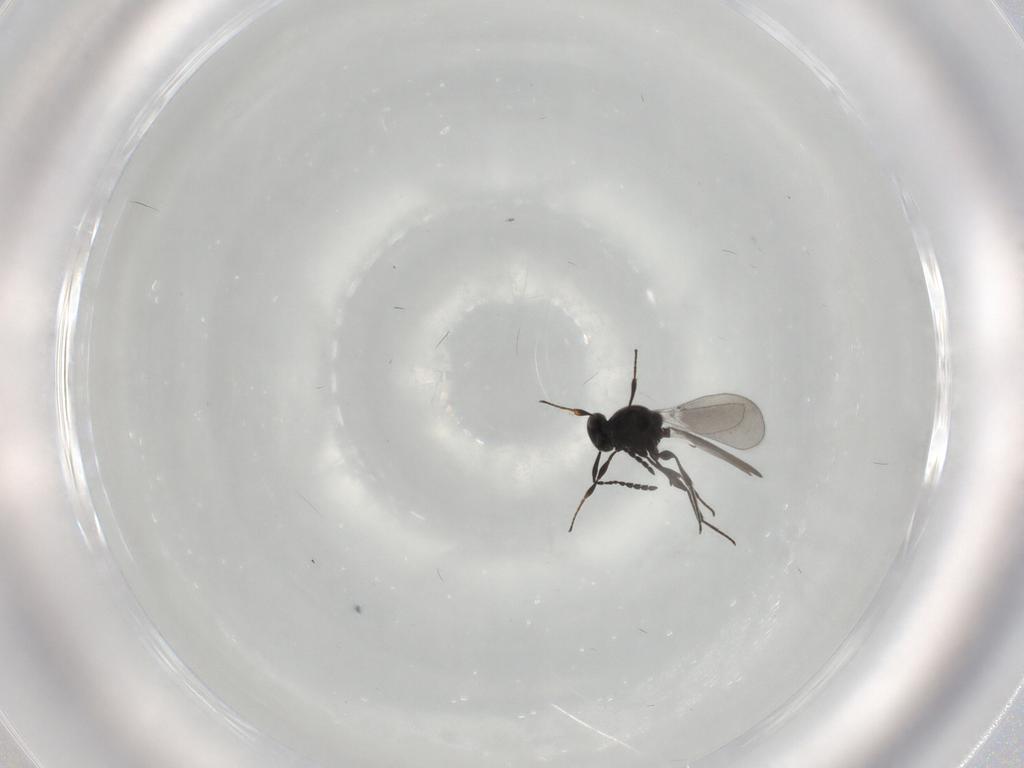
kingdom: Animalia
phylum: Arthropoda
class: Insecta
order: Hymenoptera
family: Platygastridae
